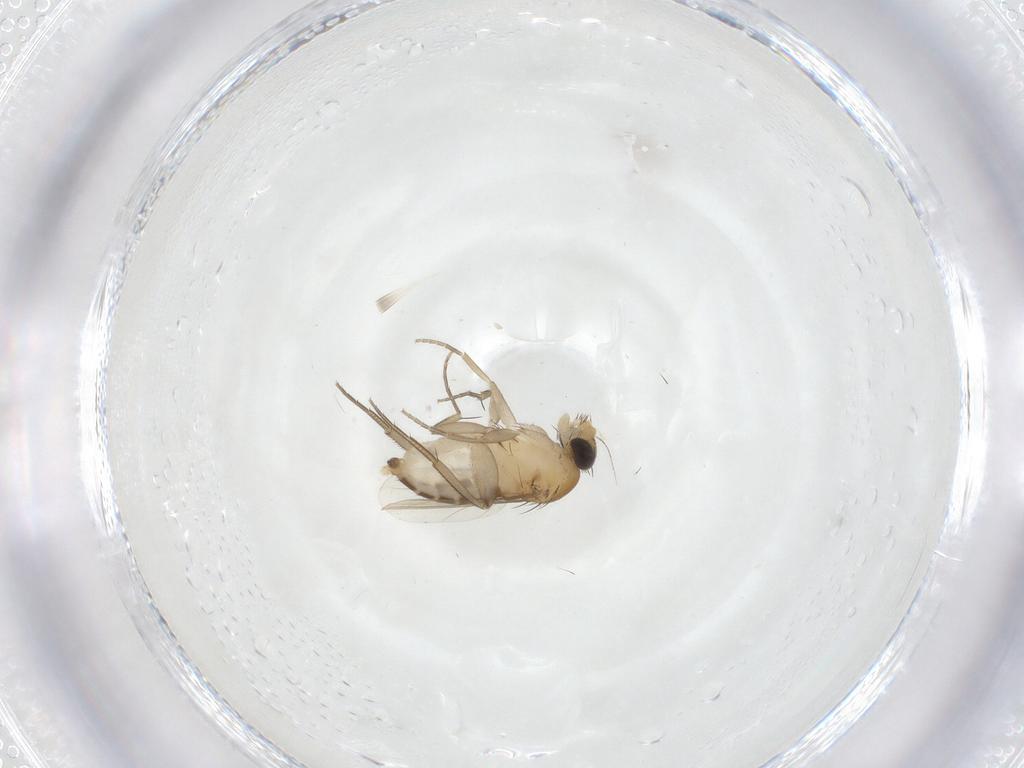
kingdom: Animalia
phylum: Arthropoda
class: Insecta
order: Diptera
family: Phoridae
